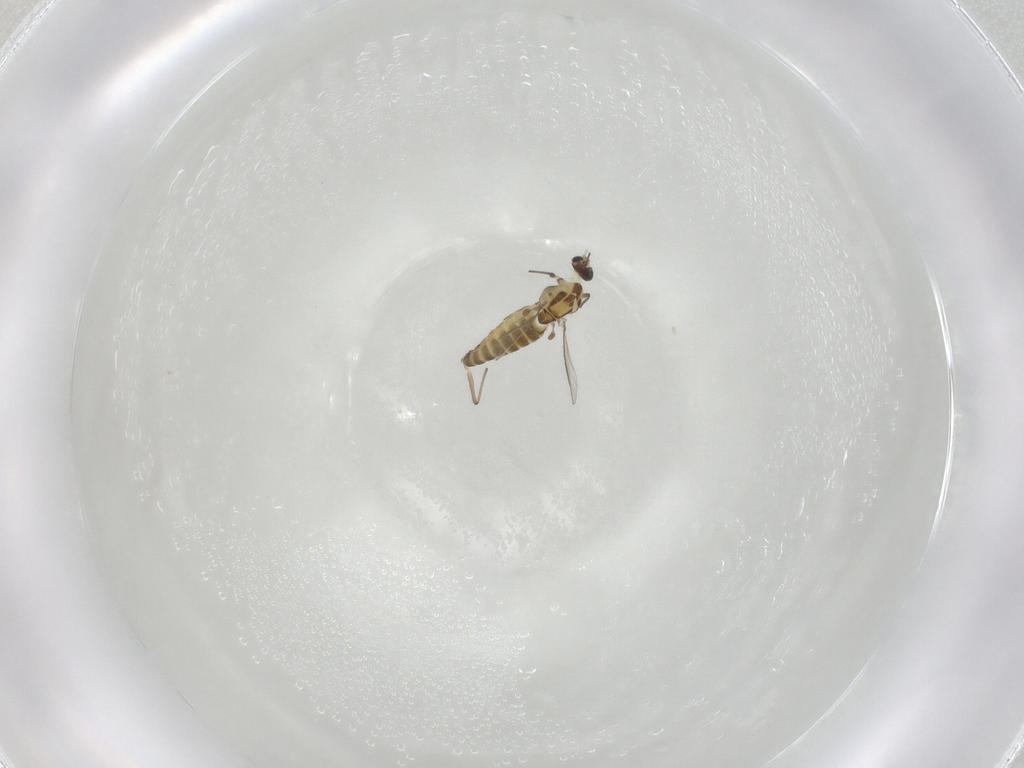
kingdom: Animalia
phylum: Arthropoda
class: Insecta
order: Diptera
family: Chironomidae
